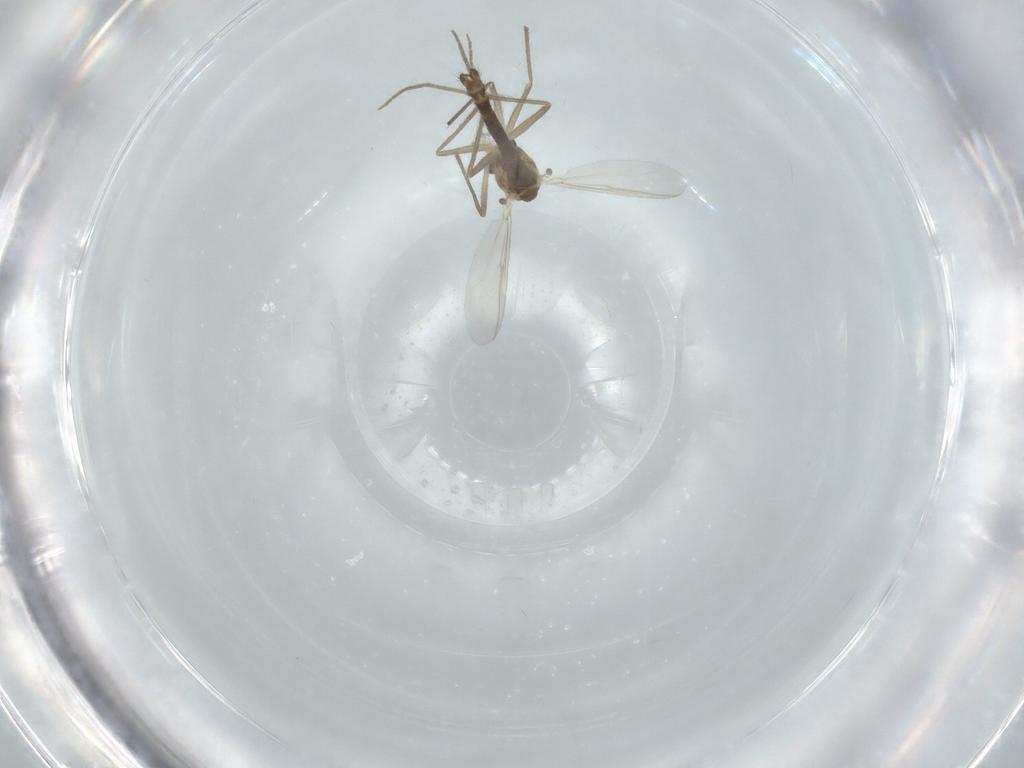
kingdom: Animalia
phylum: Arthropoda
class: Insecta
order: Diptera
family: Chironomidae
